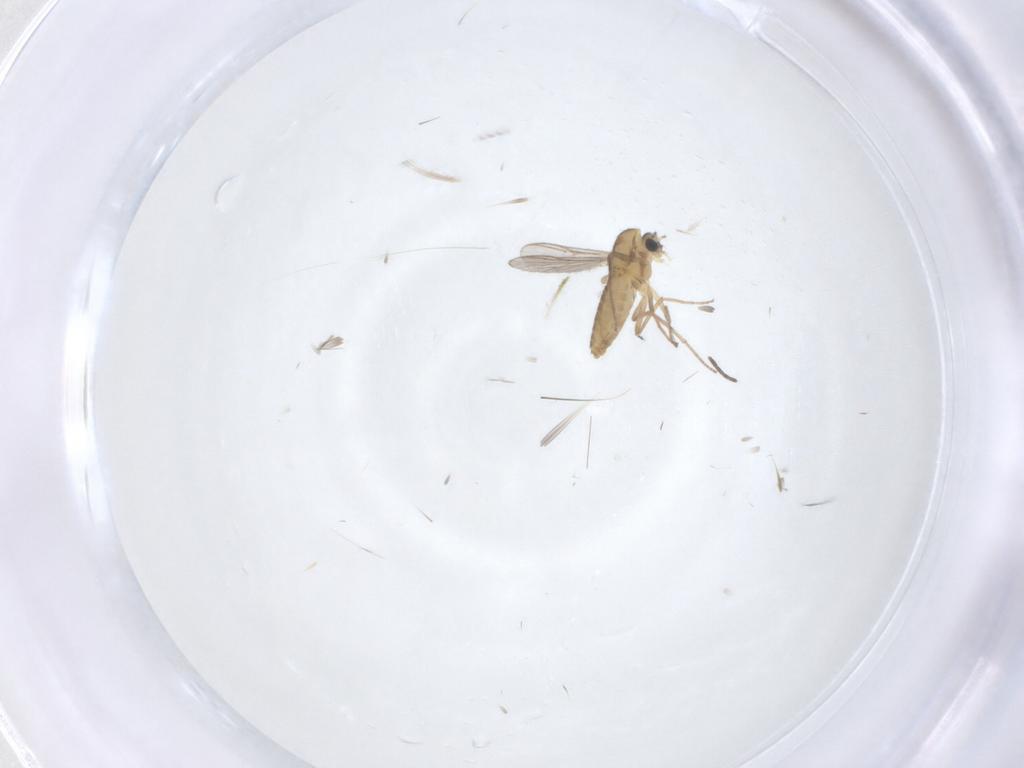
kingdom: Animalia
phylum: Arthropoda
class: Insecta
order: Diptera
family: Chironomidae
